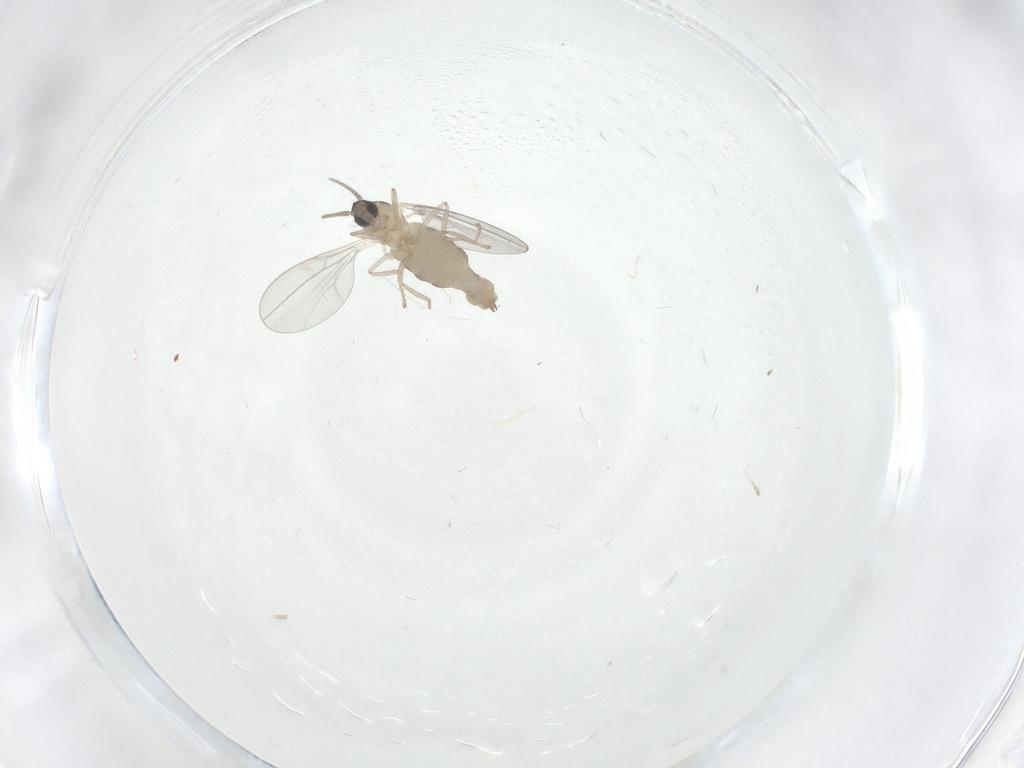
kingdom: Animalia
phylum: Arthropoda
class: Insecta
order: Diptera
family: Cecidomyiidae
